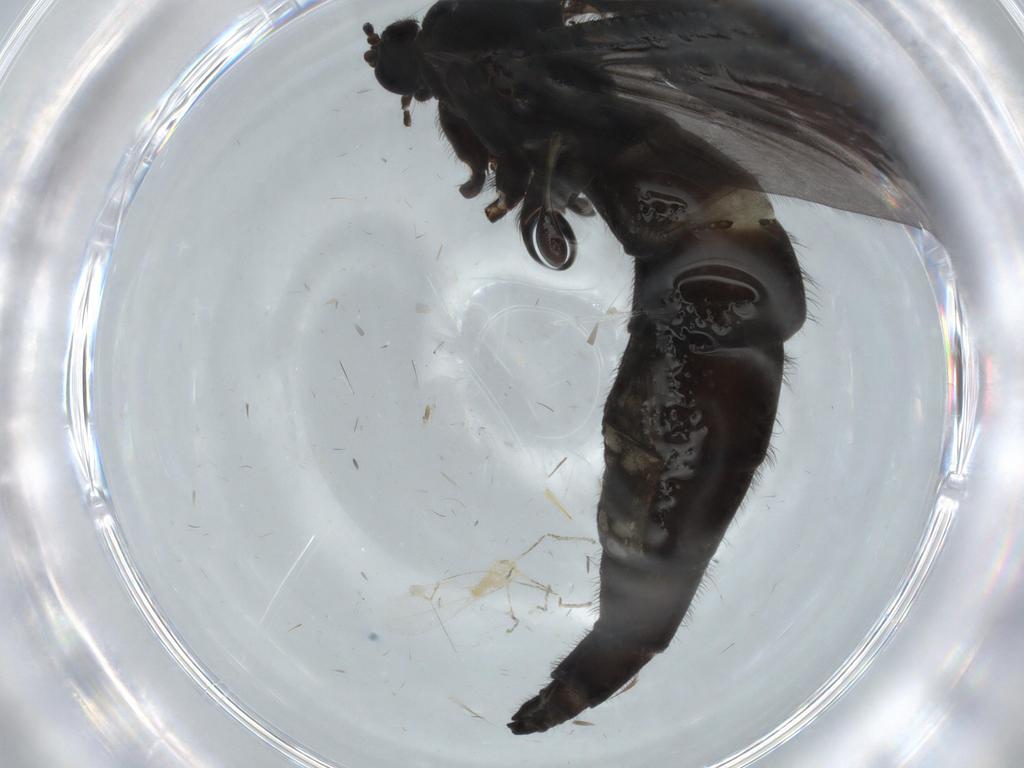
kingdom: Animalia
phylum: Arthropoda
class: Insecta
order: Diptera
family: Sciaridae
